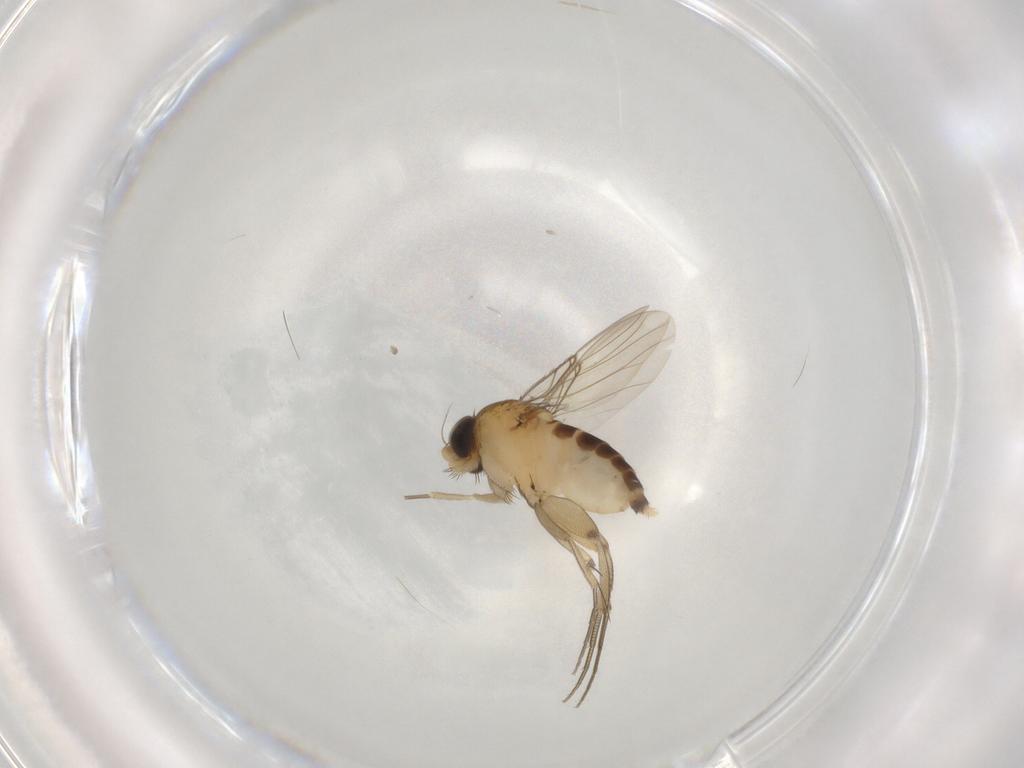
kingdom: Animalia
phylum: Arthropoda
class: Insecta
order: Diptera
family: Phoridae
